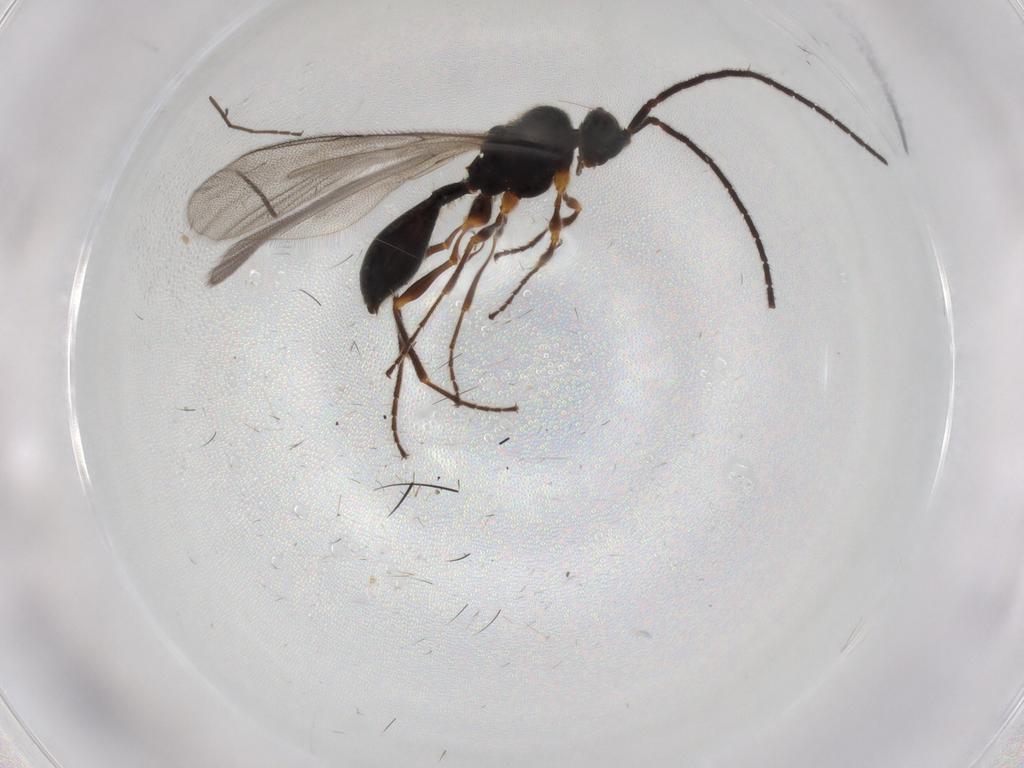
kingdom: Animalia
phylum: Arthropoda
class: Insecta
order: Hymenoptera
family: Diapriidae
